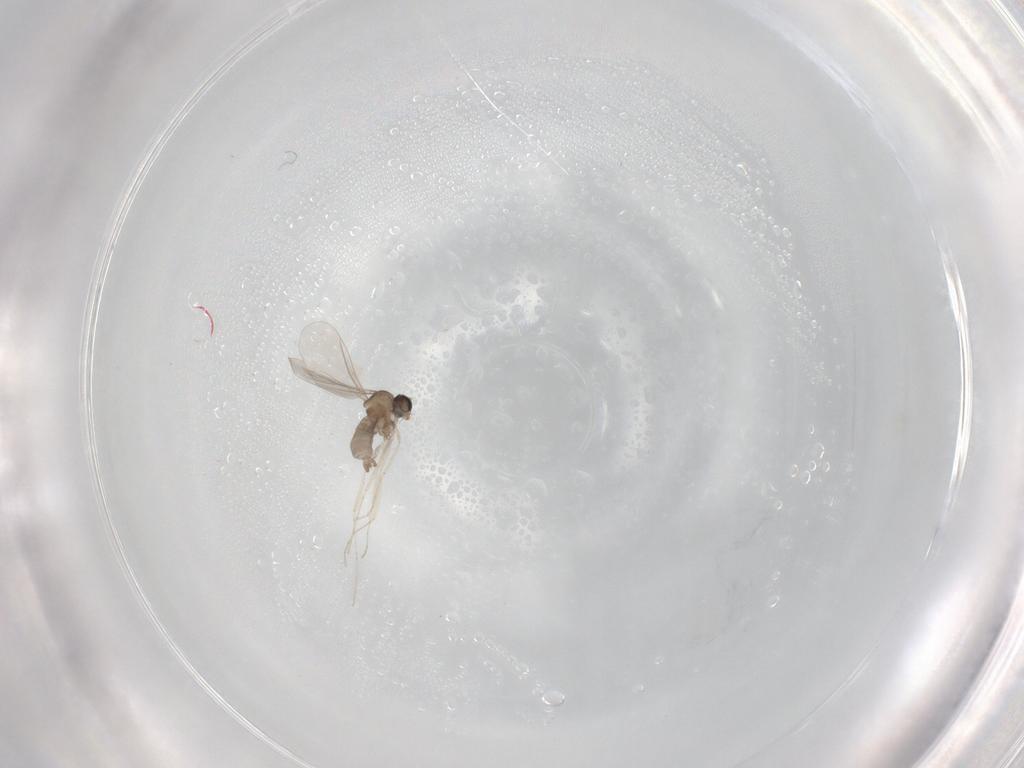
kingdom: Animalia
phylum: Arthropoda
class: Insecta
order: Diptera
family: Cecidomyiidae
